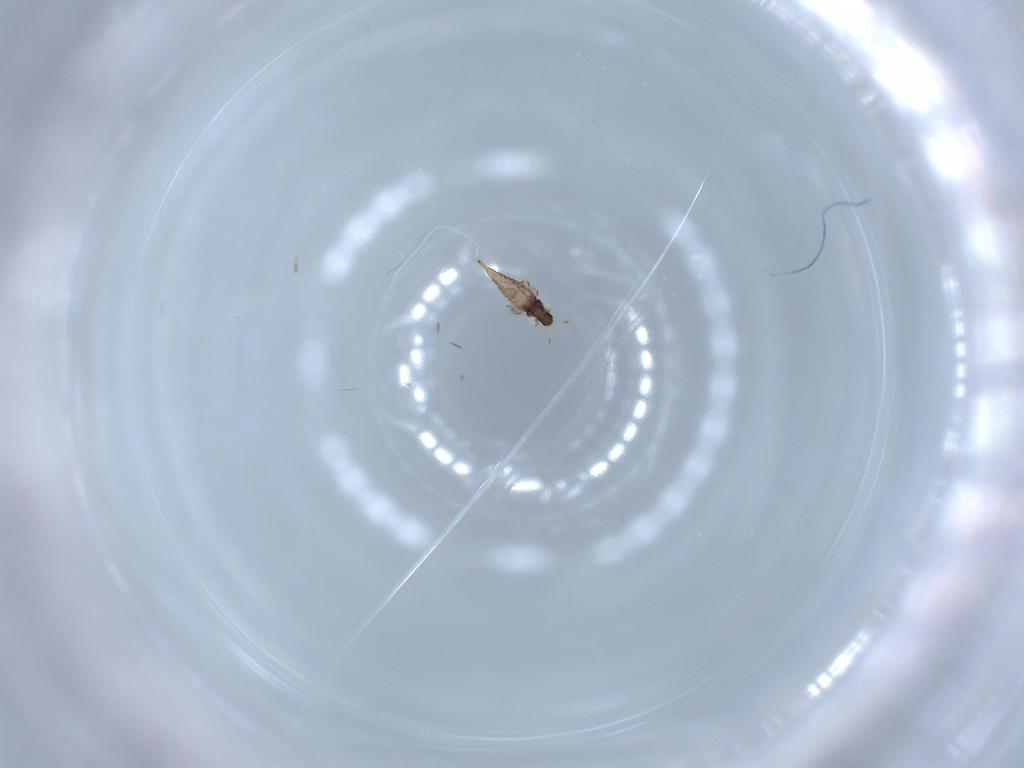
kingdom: Animalia
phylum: Arthropoda
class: Insecta
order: Thysanoptera
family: Phlaeothripidae
